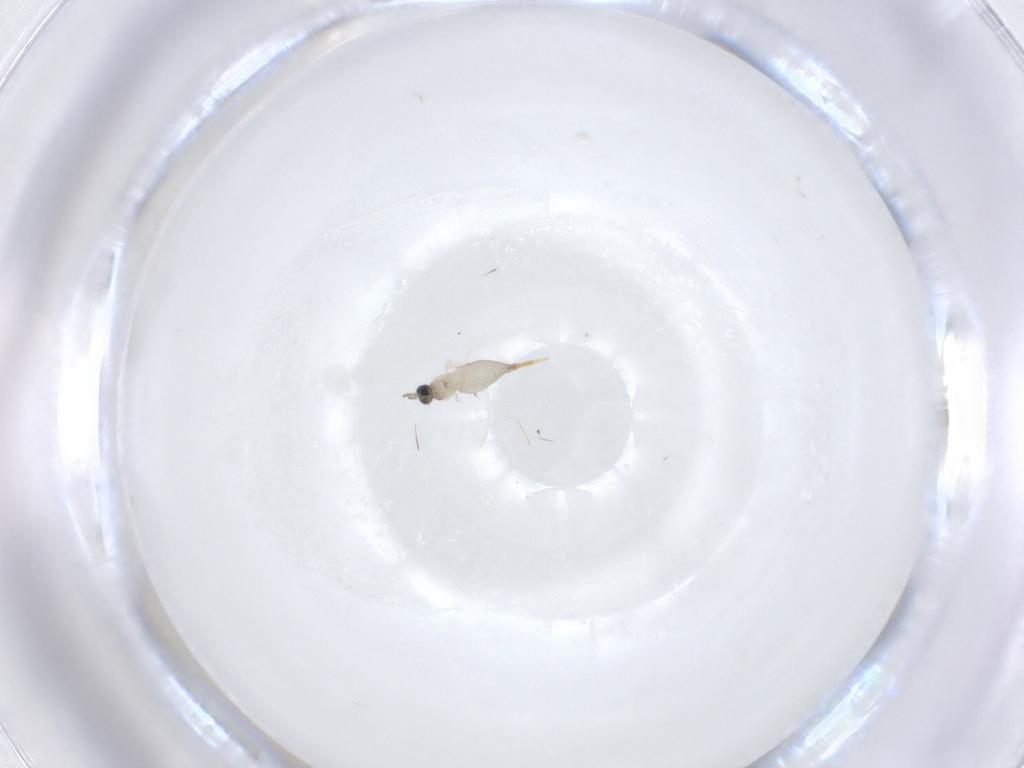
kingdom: Animalia
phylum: Arthropoda
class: Insecta
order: Diptera
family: Cecidomyiidae
